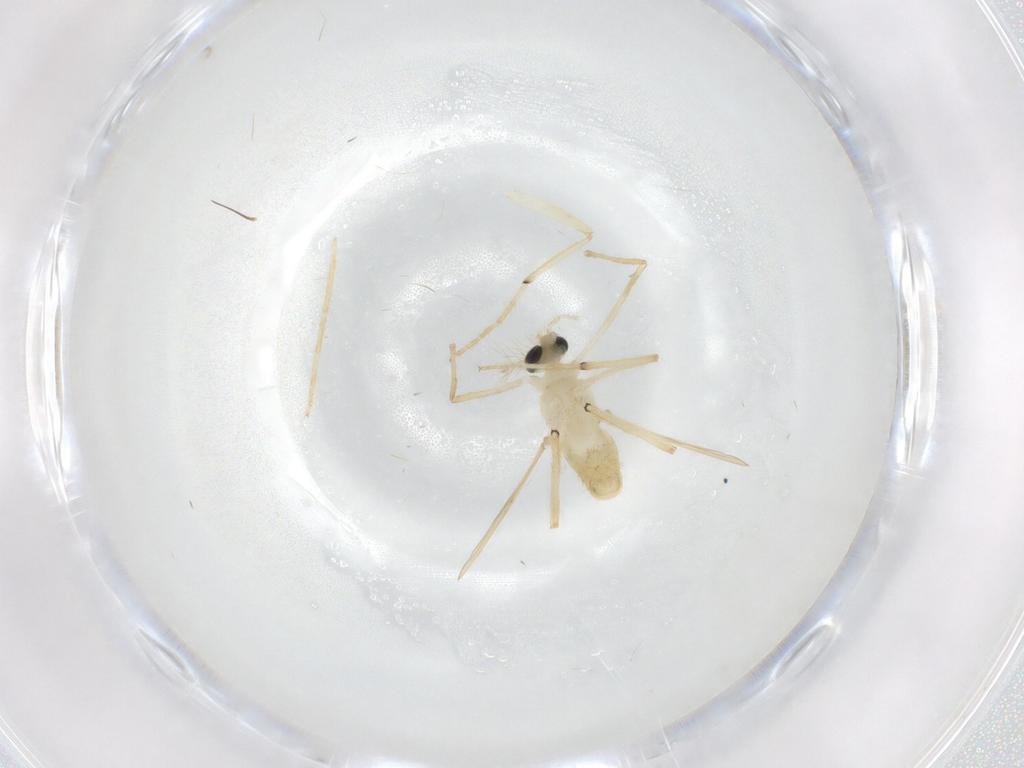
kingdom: Animalia
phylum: Arthropoda
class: Insecta
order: Diptera
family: Chironomidae
